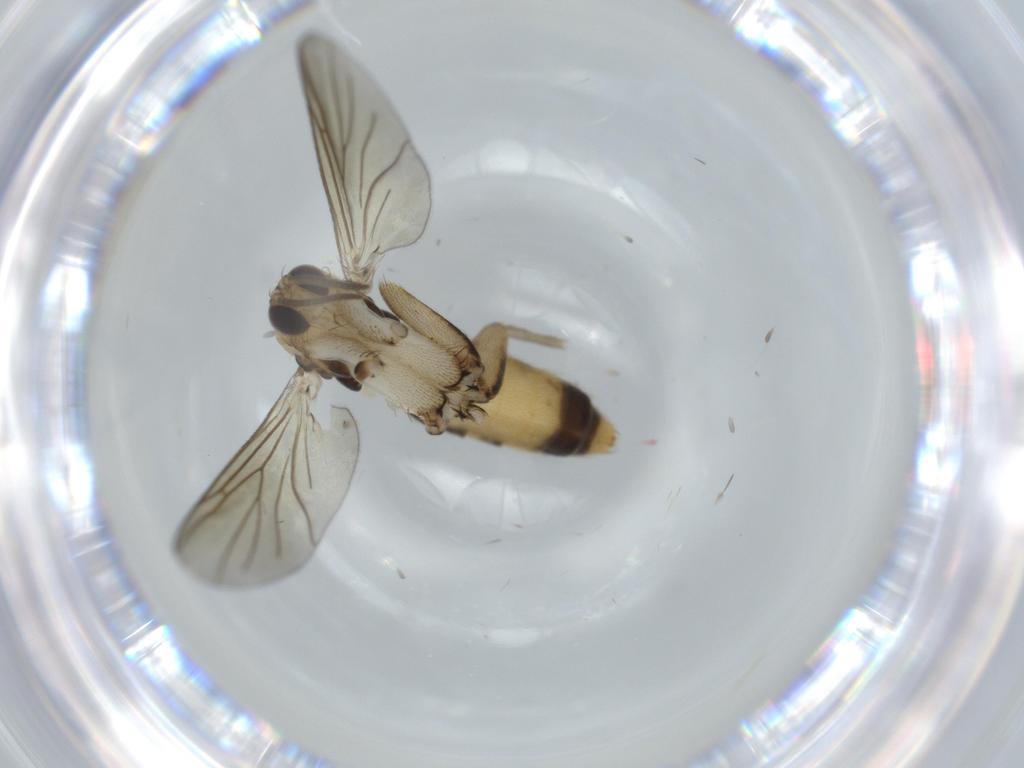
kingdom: Animalia
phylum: Arthropoda
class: Insecta
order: Diptera
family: Mycetophilidae
